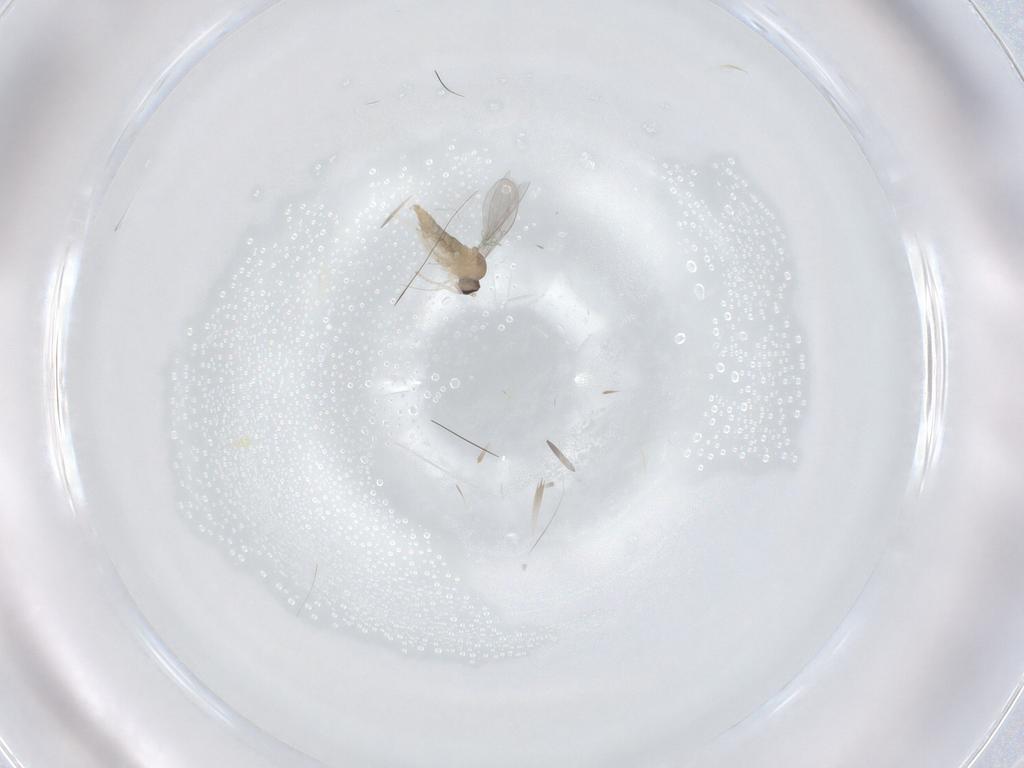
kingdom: Animalia
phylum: Arthropoda
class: Insecta
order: Diptera
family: Cecidomyiidae
